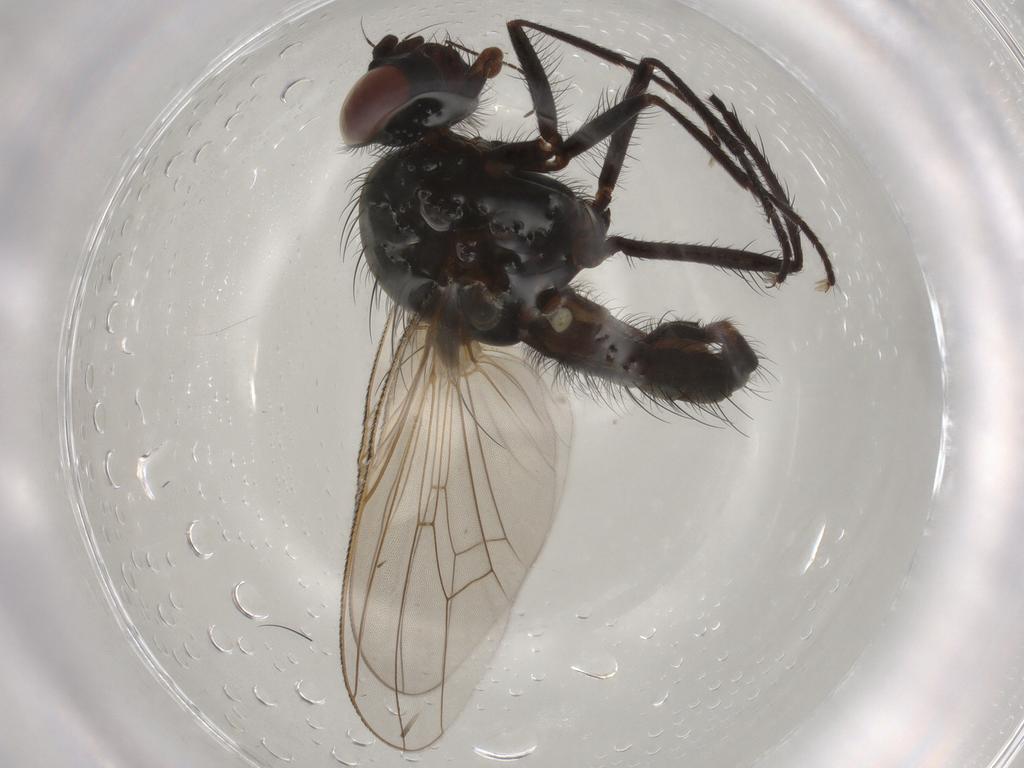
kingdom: Animalia
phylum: Arthropoda
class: Insecta
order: Diptera
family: Anthomyiidae
